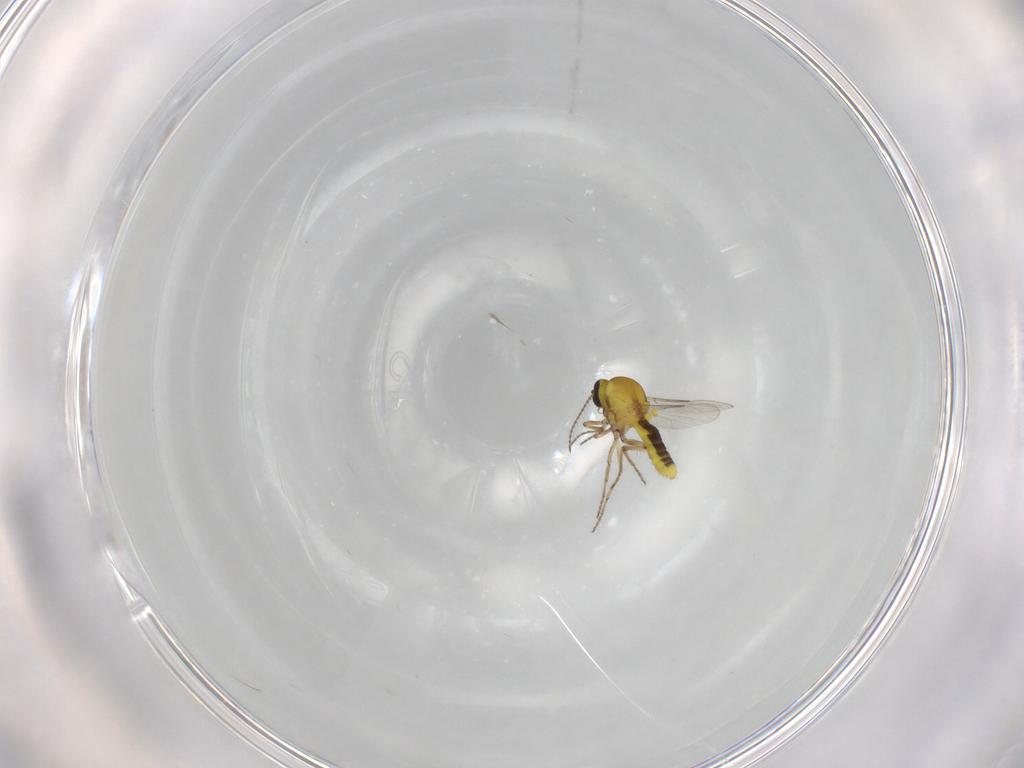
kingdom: Animalia
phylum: Arthropoda
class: Insecta
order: Diptera
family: Ceratopogonidae
